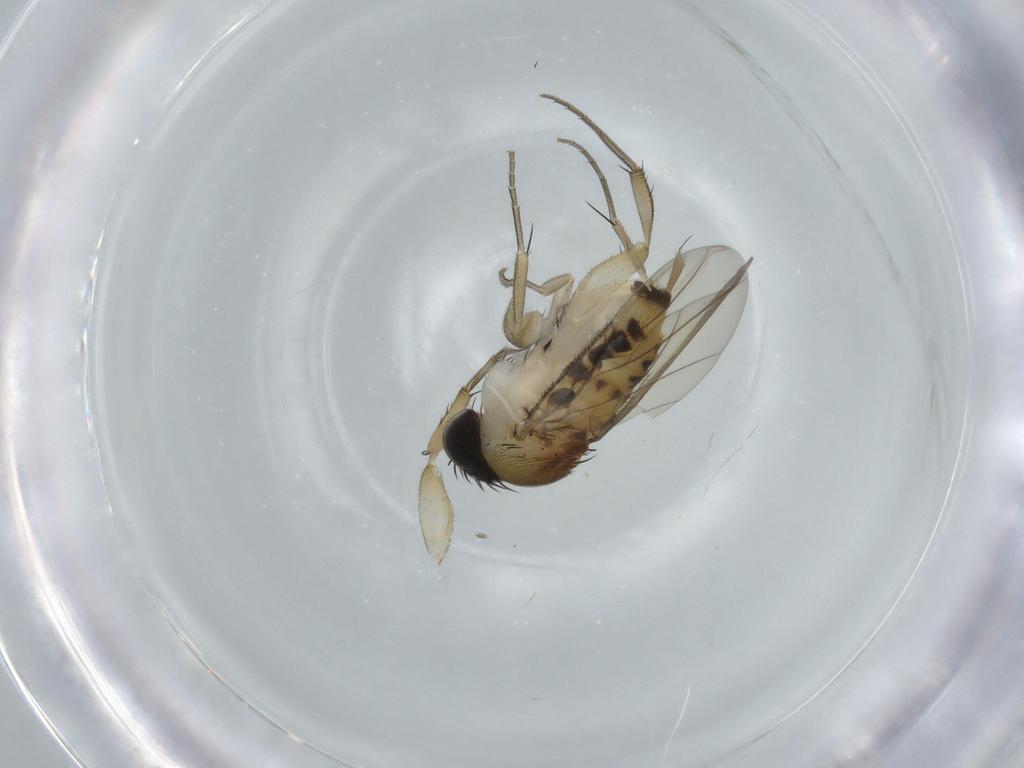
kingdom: Animalia
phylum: Arthropoda
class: Insecta
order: Diptera
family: Phoridae
